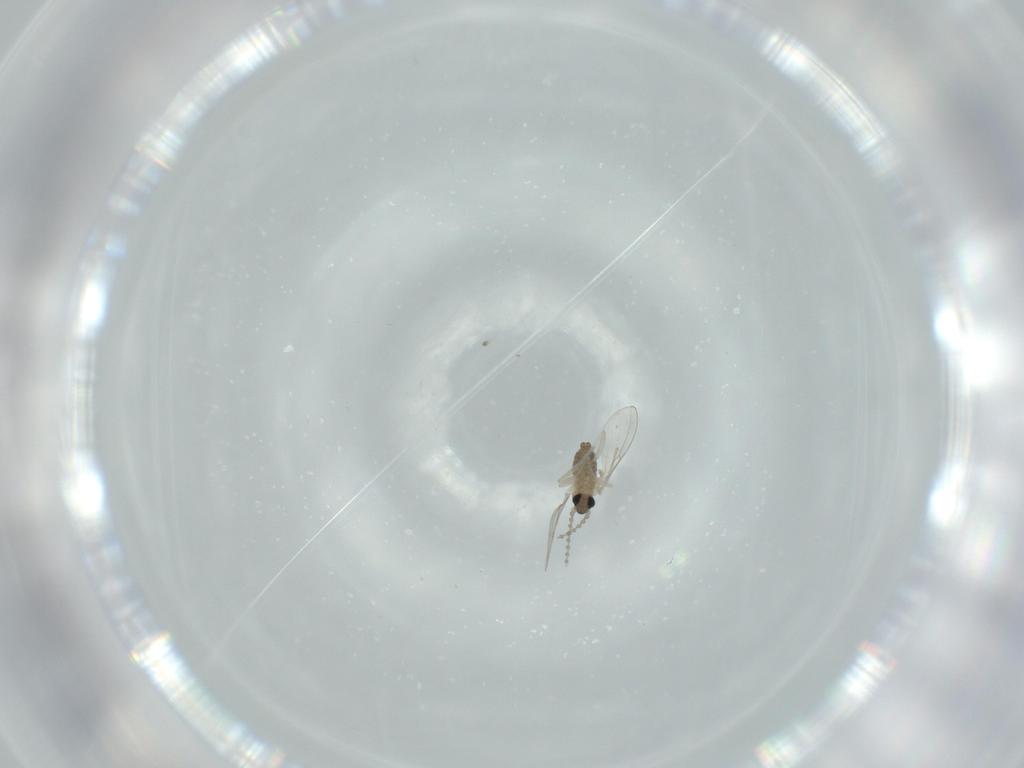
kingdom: Animalia
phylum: Arthropoda
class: Insecta
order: Diptera
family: Cecidomyiidae
